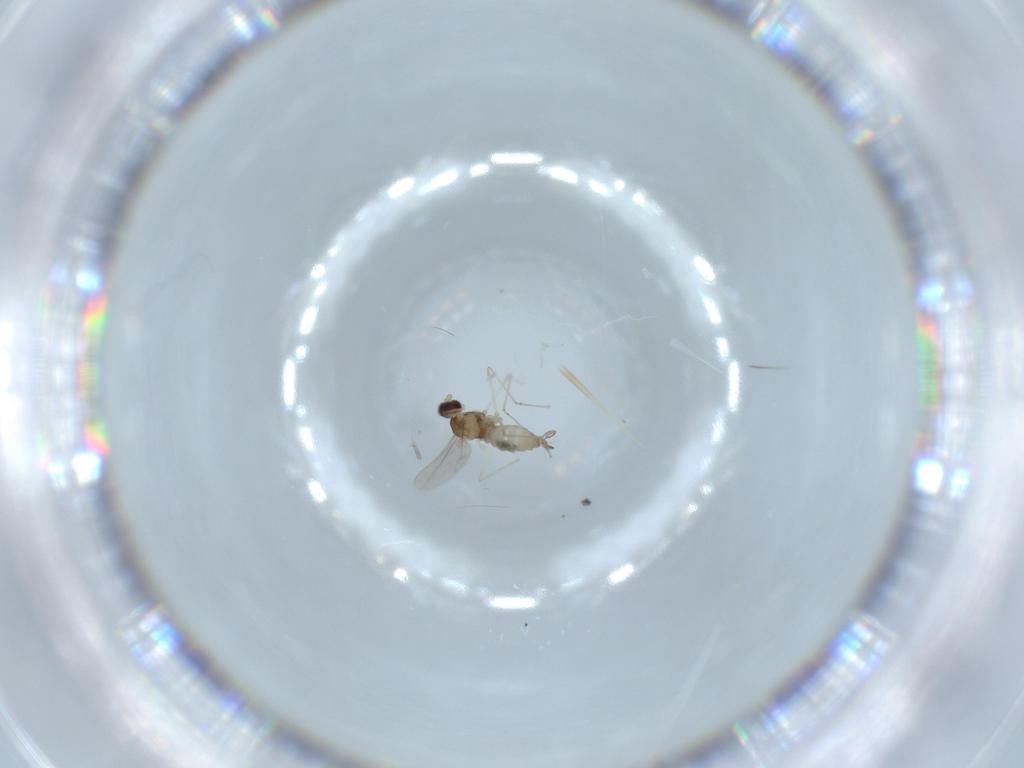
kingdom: Animalia
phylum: Arthropoda
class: Insecta
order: Diptera
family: Cecidomyiidae
